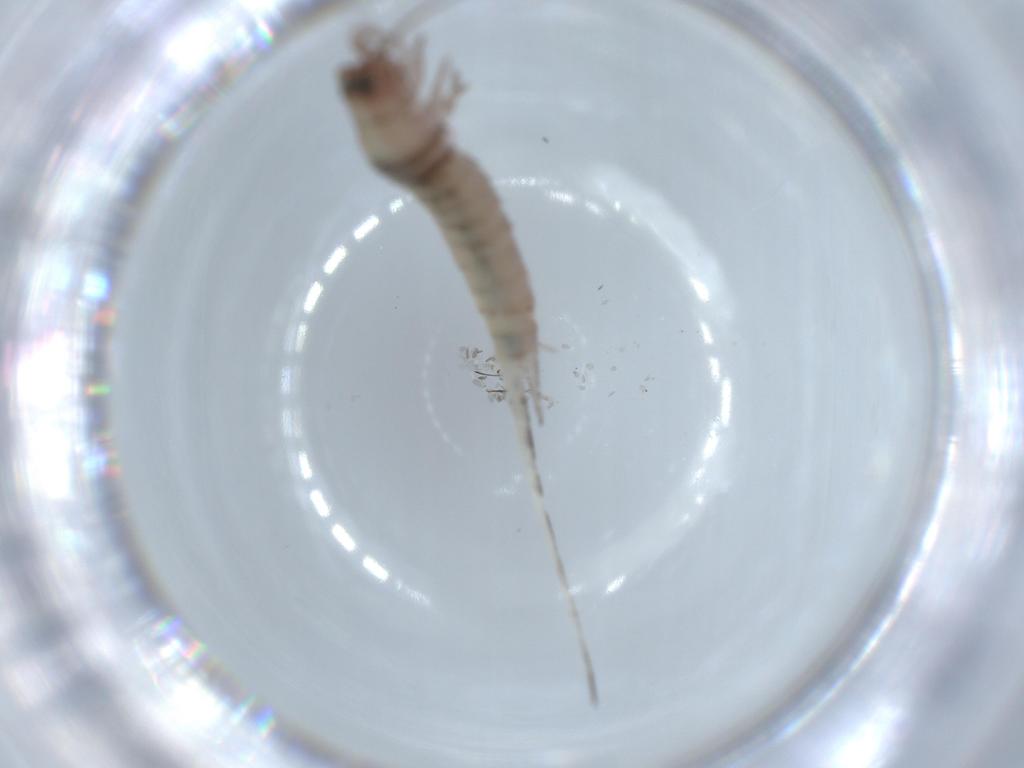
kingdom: Animalia
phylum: Arthropoda
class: Insecta
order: Archaeognatha
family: Machilidae
